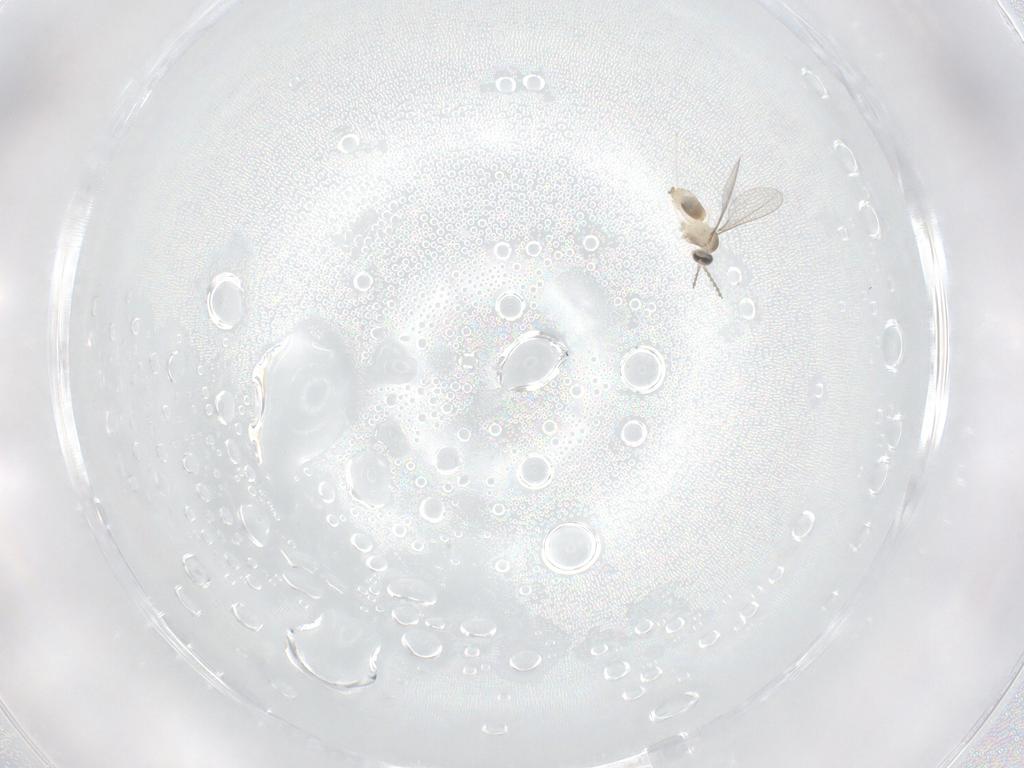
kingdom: Animalia
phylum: Arthropoda
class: Insecta
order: Diptera
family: Cecidomyiidae
